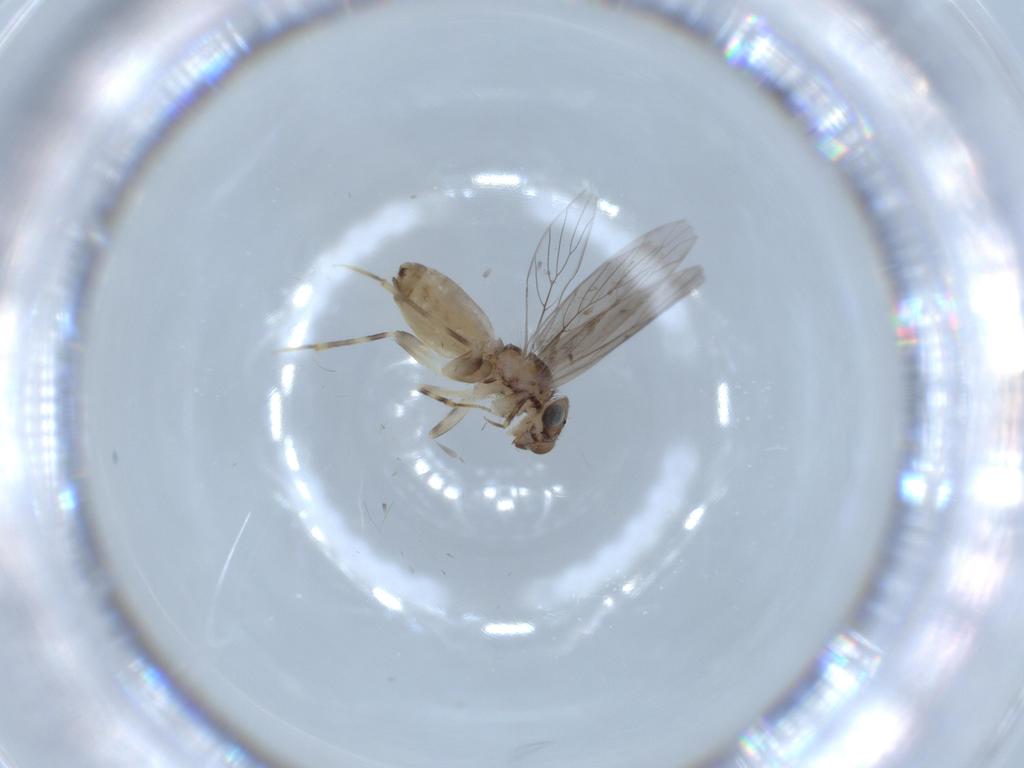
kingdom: Animalia
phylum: Arthropoda
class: Insecta
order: Psocodea
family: Lepidopsocidae
